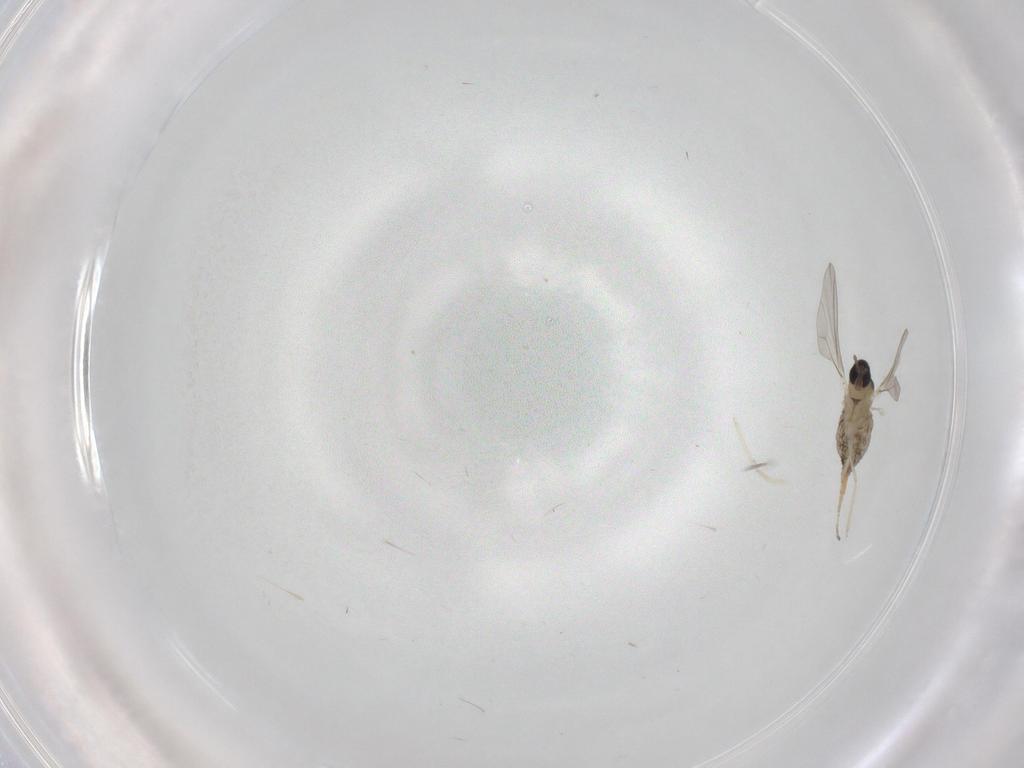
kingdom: Animalia
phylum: Arthropoda
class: Insecta
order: Diptera
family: Cecidomyiidae
